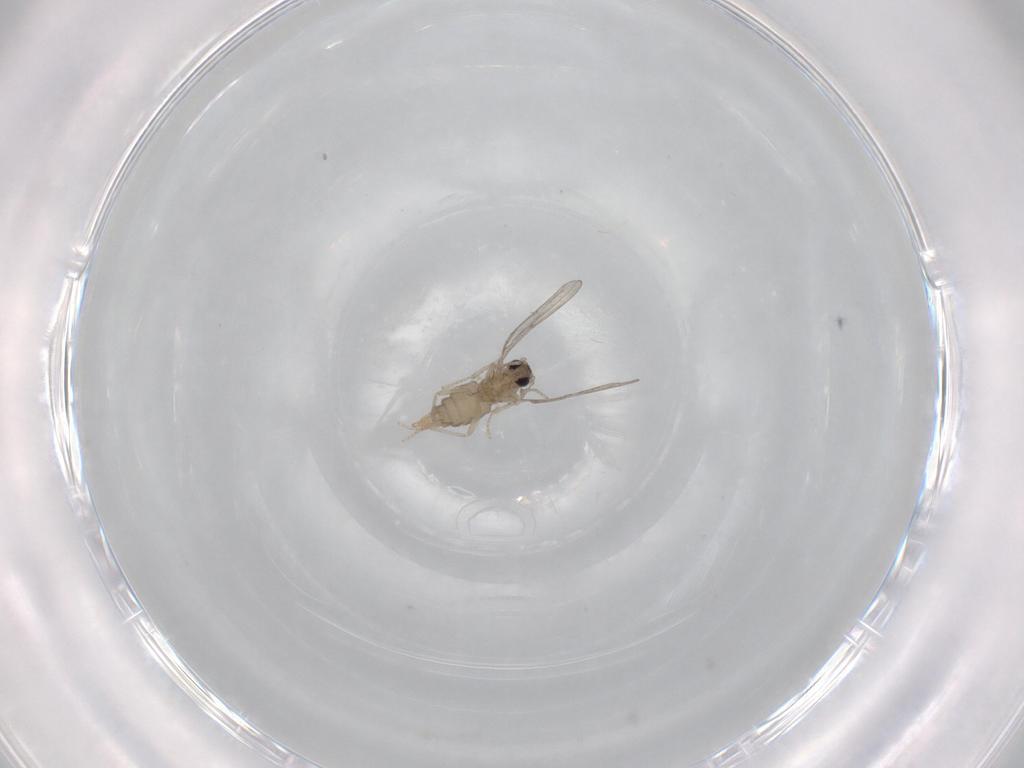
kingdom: Animalia
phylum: Arthropoda
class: Insecta
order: Diptera
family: Cecidomyiidae
